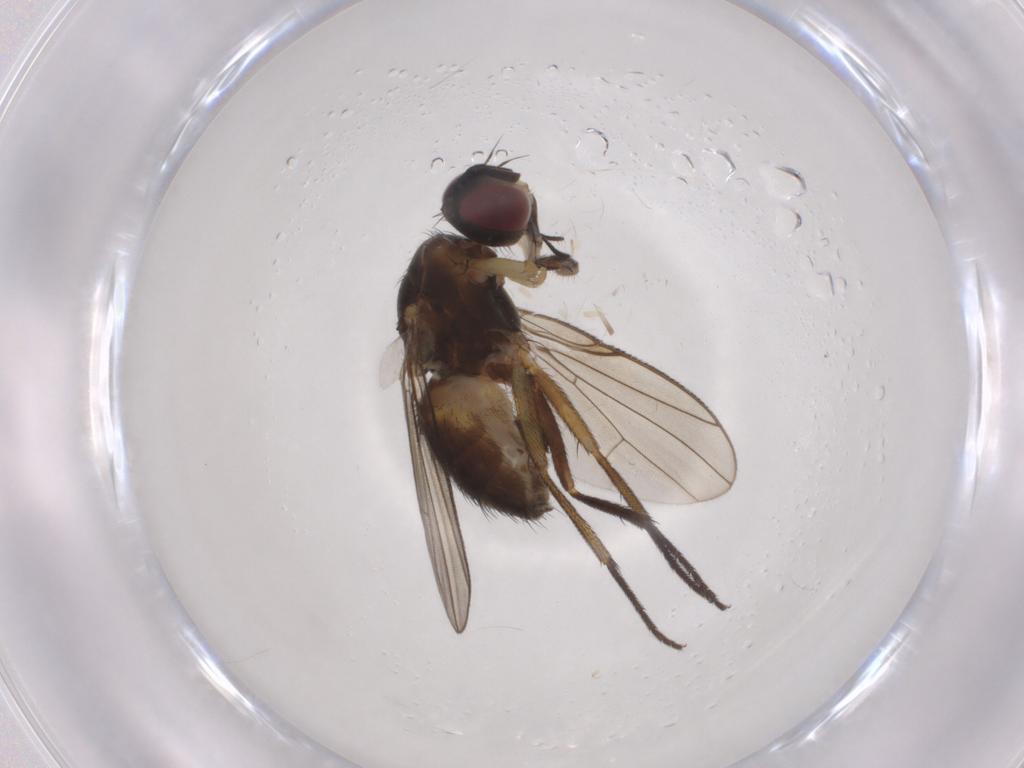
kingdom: Animalia
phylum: Arthropoda
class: Insecta
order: Diptera
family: Muscidae
